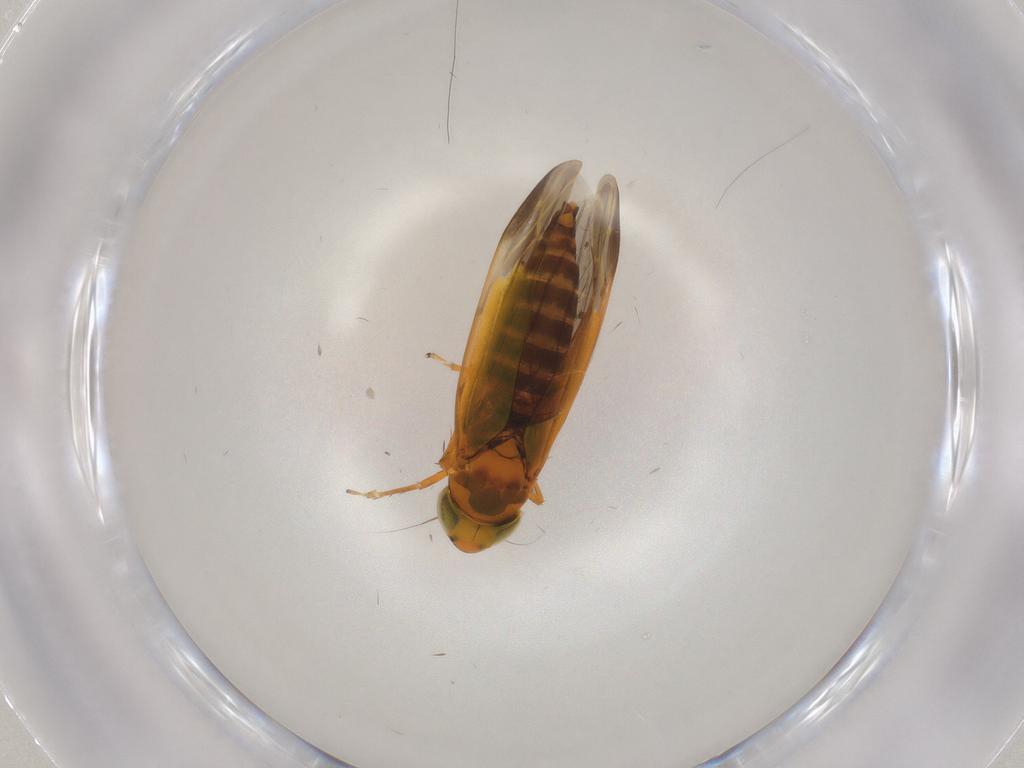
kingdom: Animalia
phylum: Arthropoda
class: Insecta
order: Hemiptera
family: Cicadellidae
